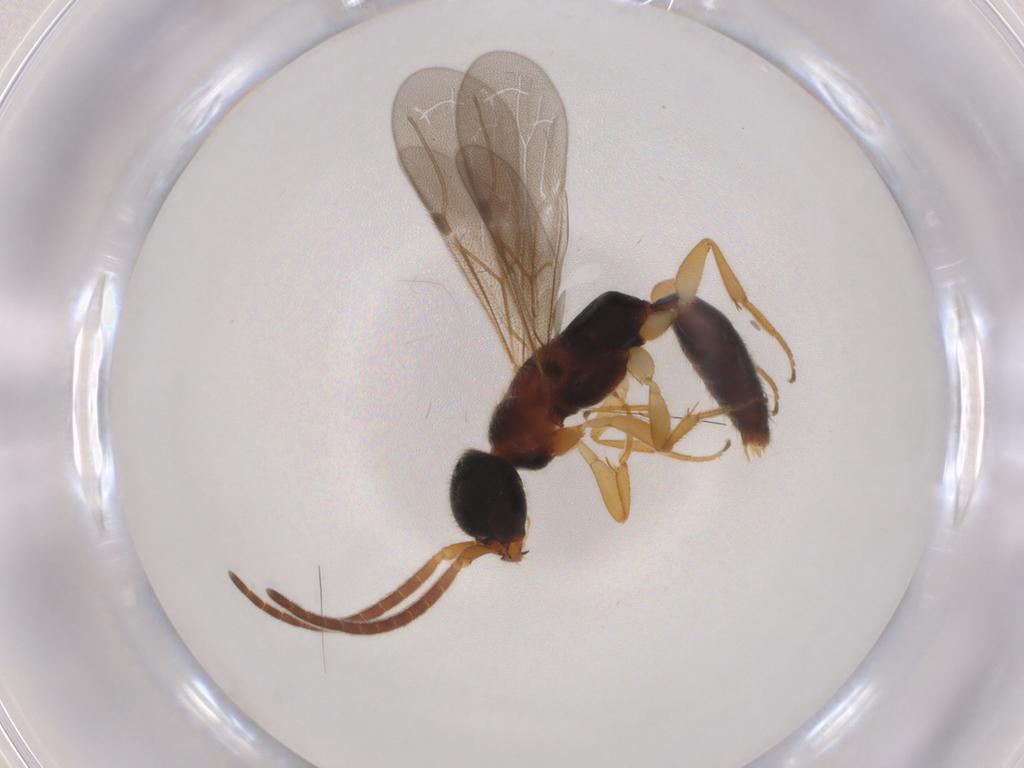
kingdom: Animalia
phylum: Arthropoda
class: Insecta
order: Hymenoptera
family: Bethylidae
